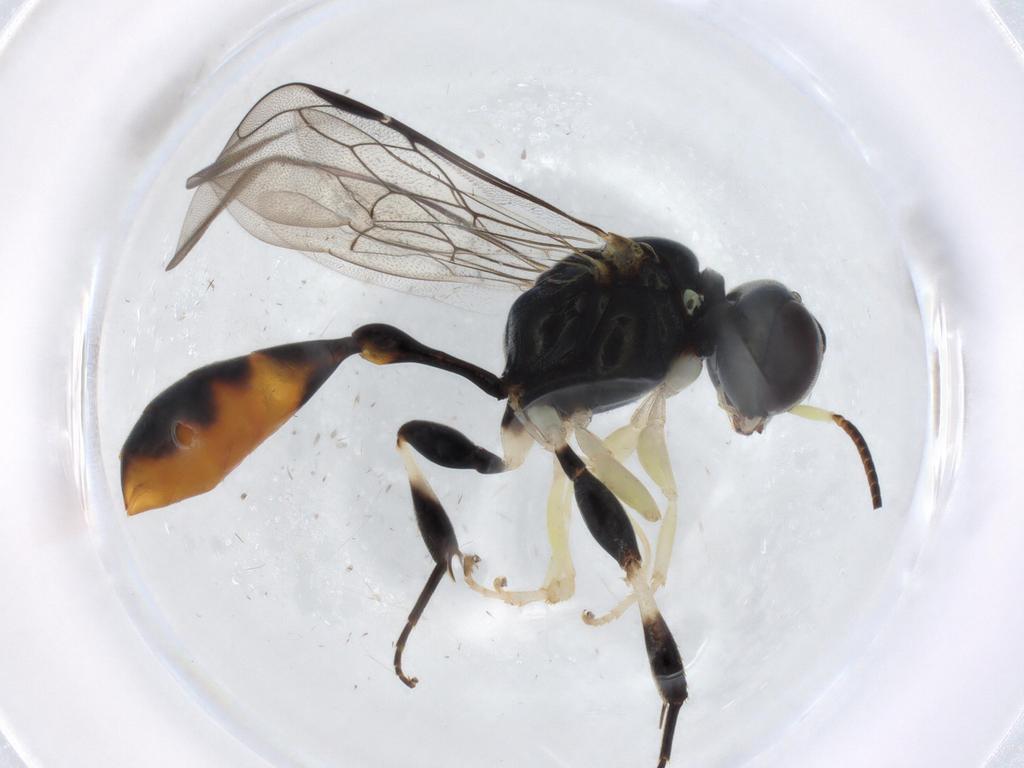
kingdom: Animalia
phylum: Arthropoda
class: Insecta
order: Hymenoptera
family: Crabronidae
